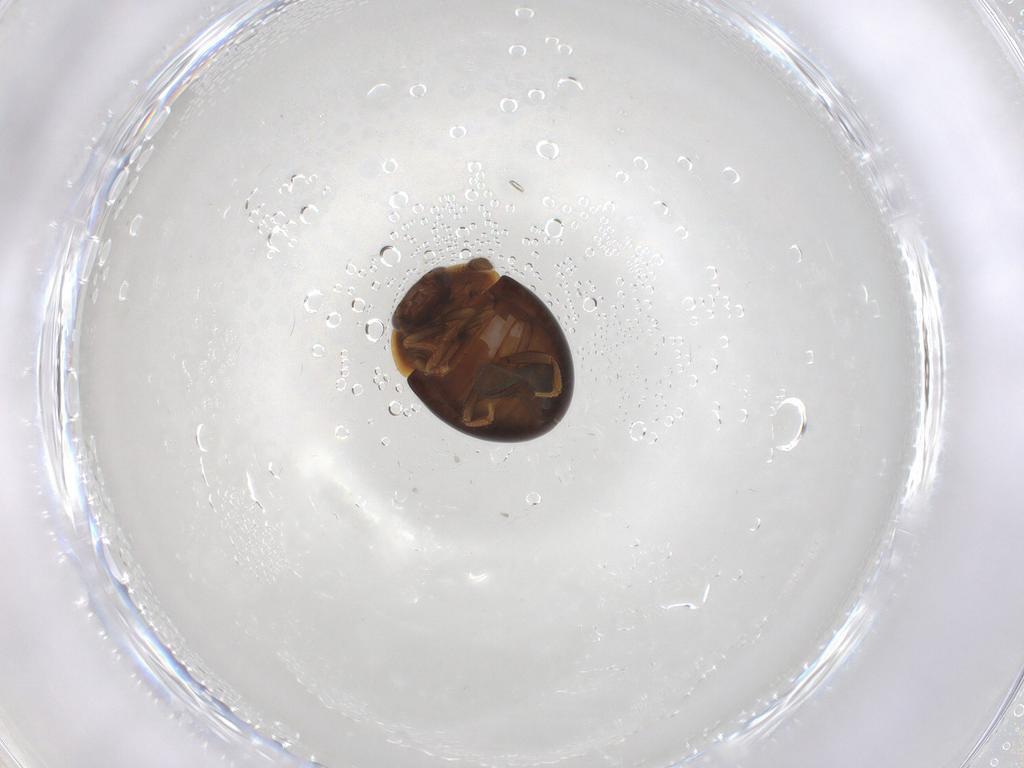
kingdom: Animalia
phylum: Arthropoda
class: Insecta
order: Coleoptera
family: Leiodidae
